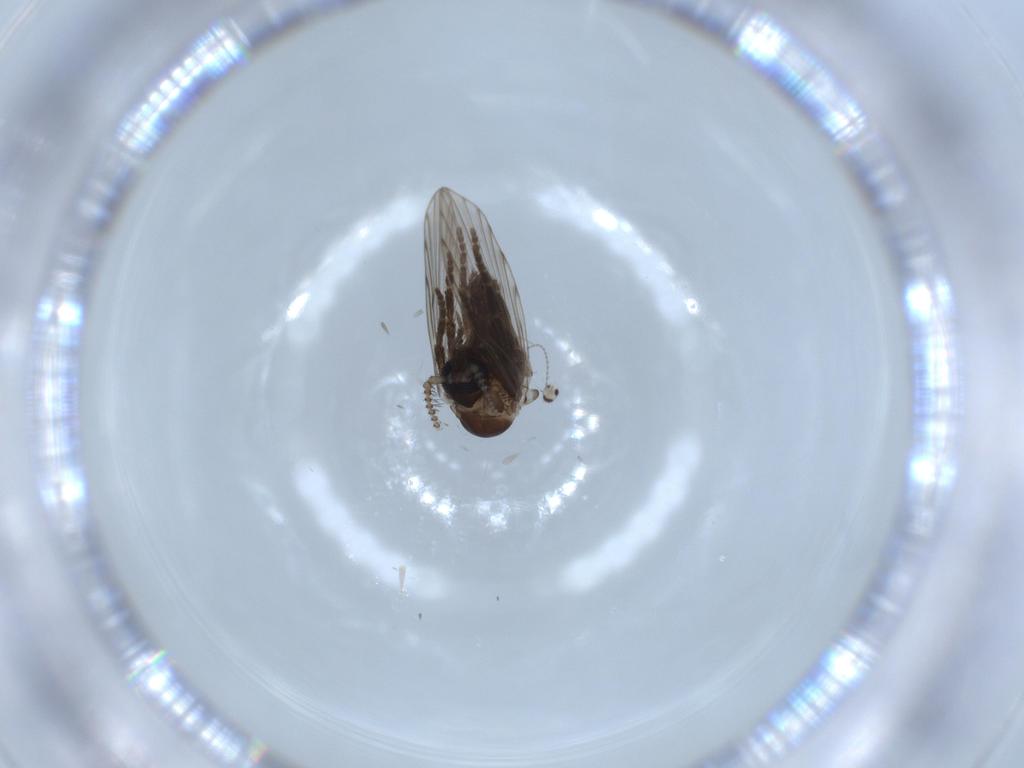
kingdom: Animalia
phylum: Arthropoda
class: Insecta
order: Diptera
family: Psychodidae
